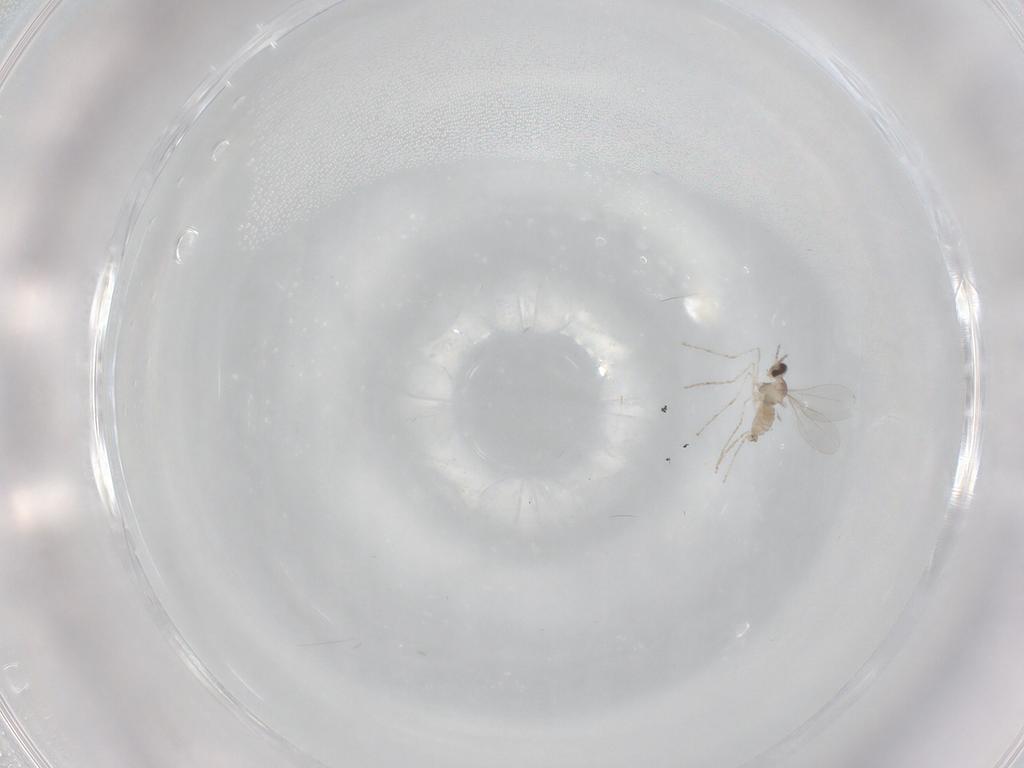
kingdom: Animalia
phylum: Arthropoda
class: Insecta
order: Diptera
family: Cecidomyiidae
